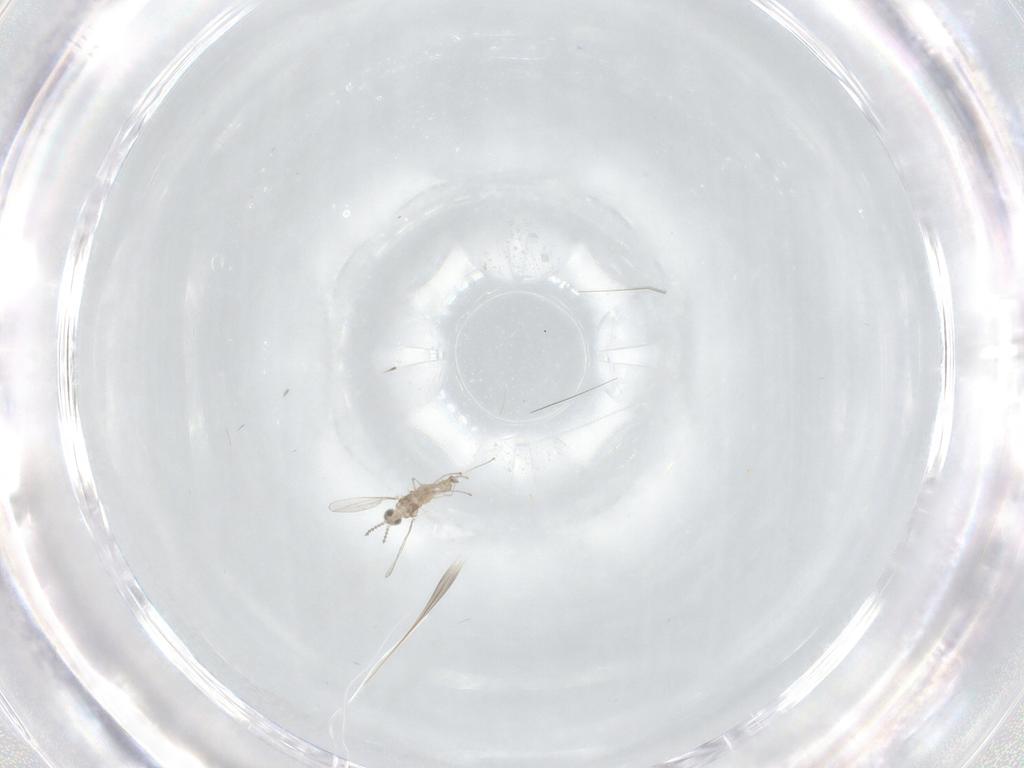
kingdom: Animalia
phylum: Arthropoda
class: Insecta
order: Diptera
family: Cecidomyiidae
